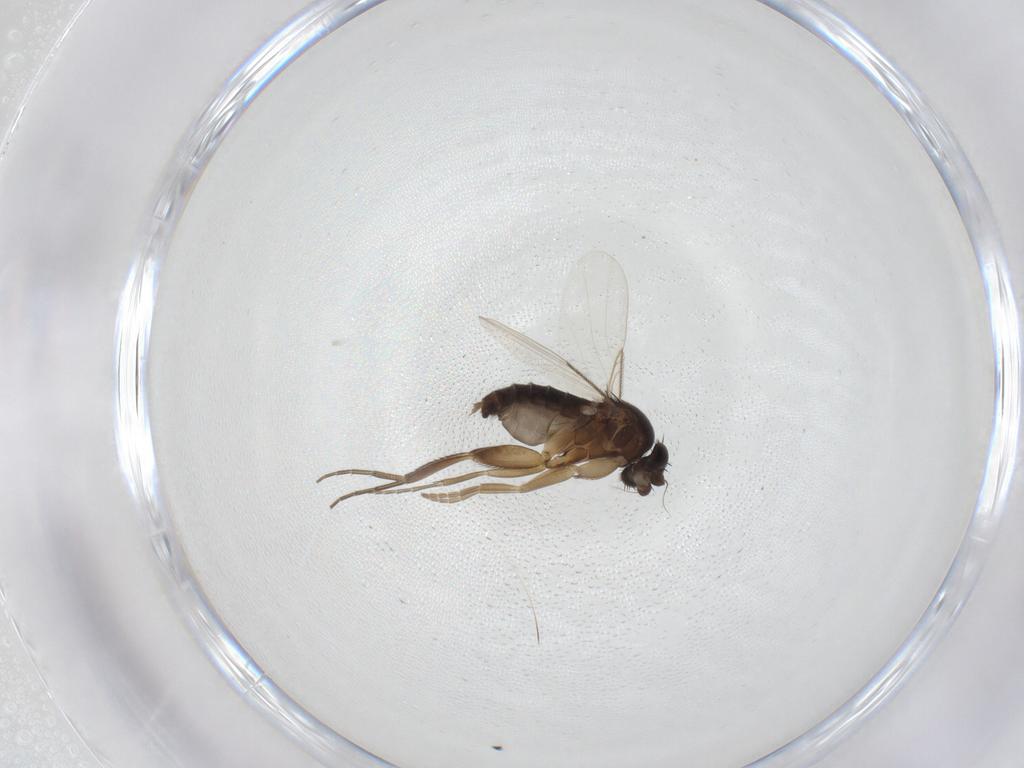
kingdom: Animalia
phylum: Arthropoda
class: Insecta
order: Diptera
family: Phoridae
